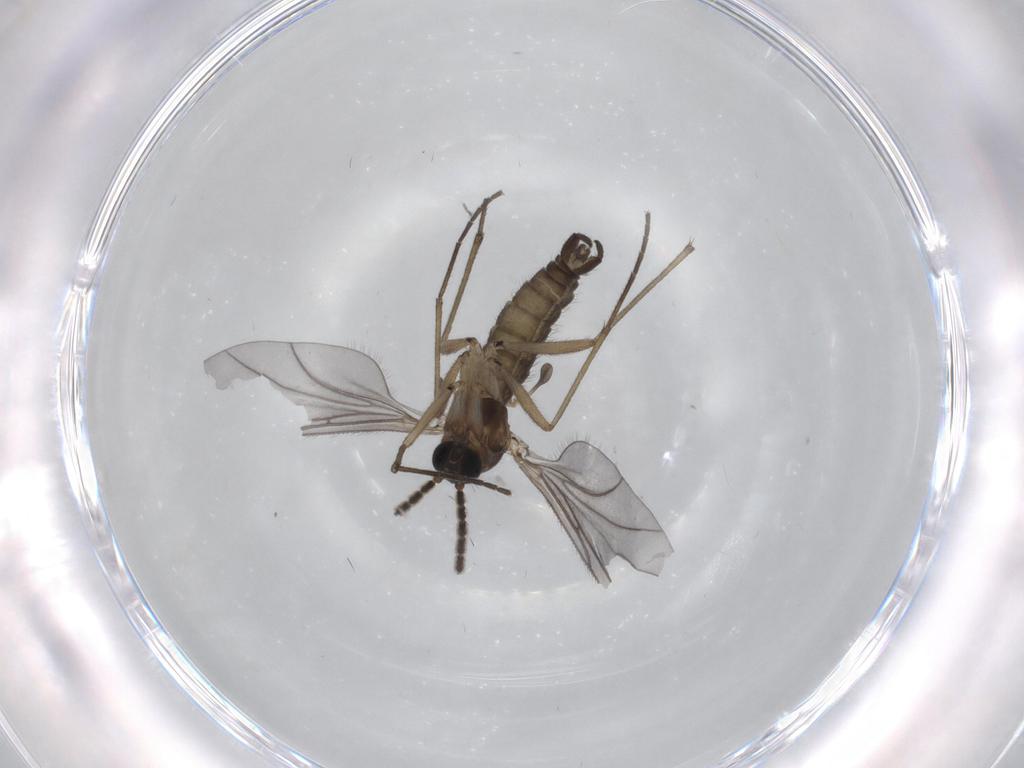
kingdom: Animalia
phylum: Arthropoda
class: Insecta
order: Diptera
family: Sciaridae
